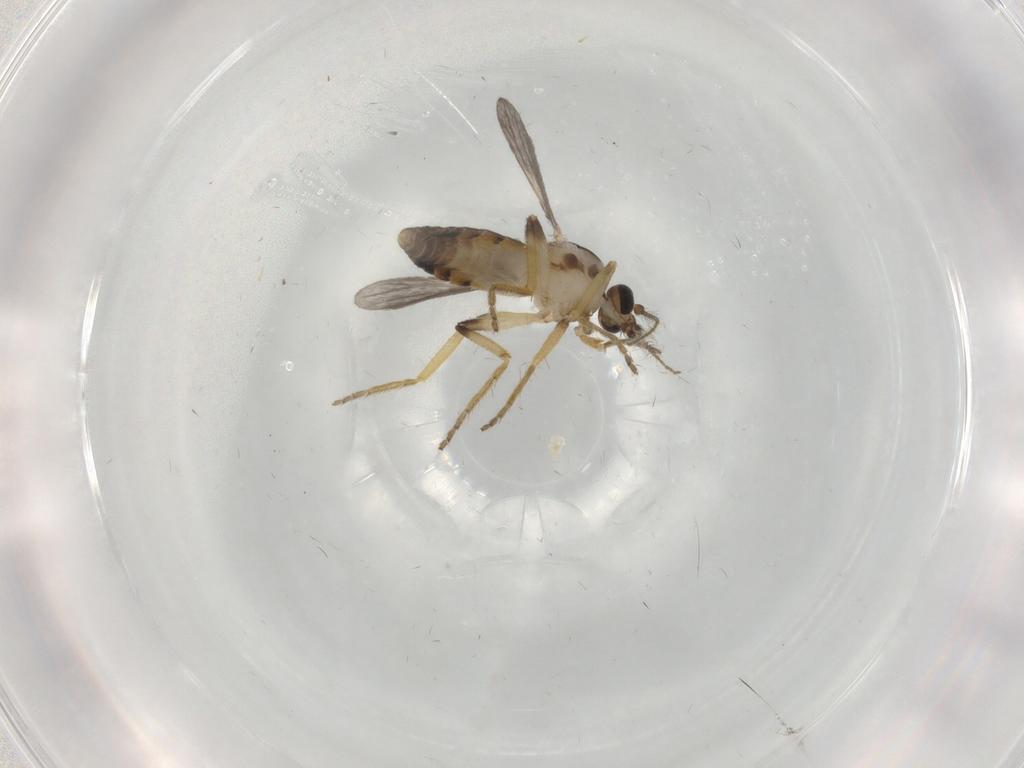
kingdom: Animalia
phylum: Arthropoda
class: Insecta
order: Diptera
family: Ceratopogonidae
